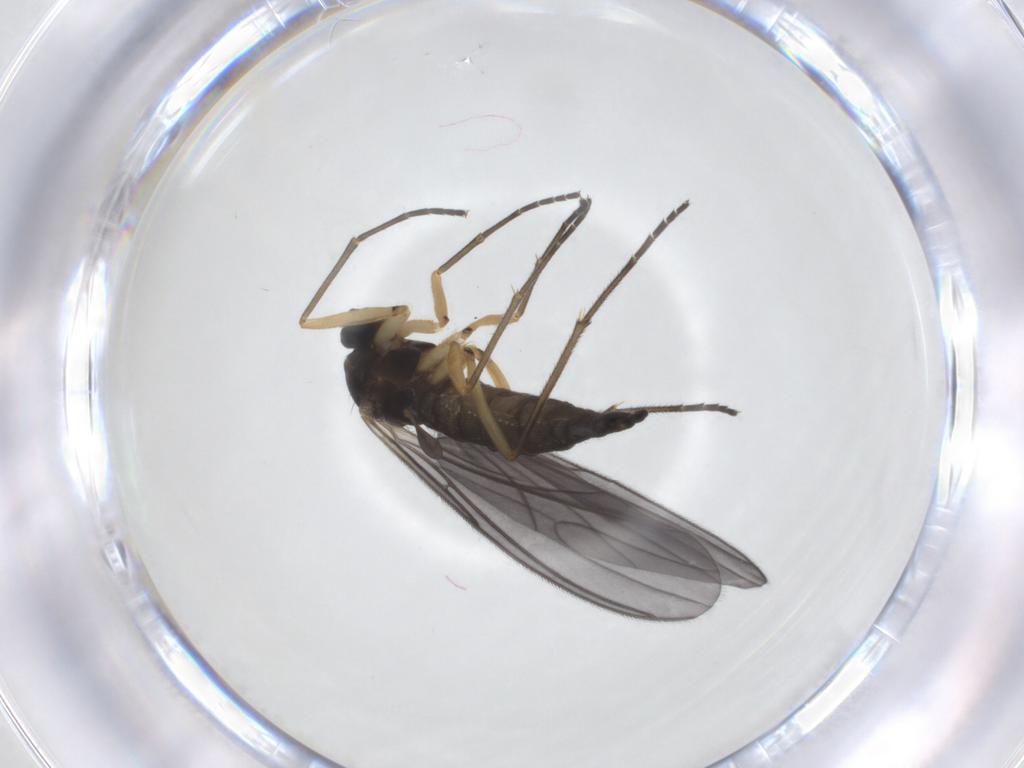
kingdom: Animalia
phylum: Arthropoda
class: Insecta
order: Diptera
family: Sciaridae
